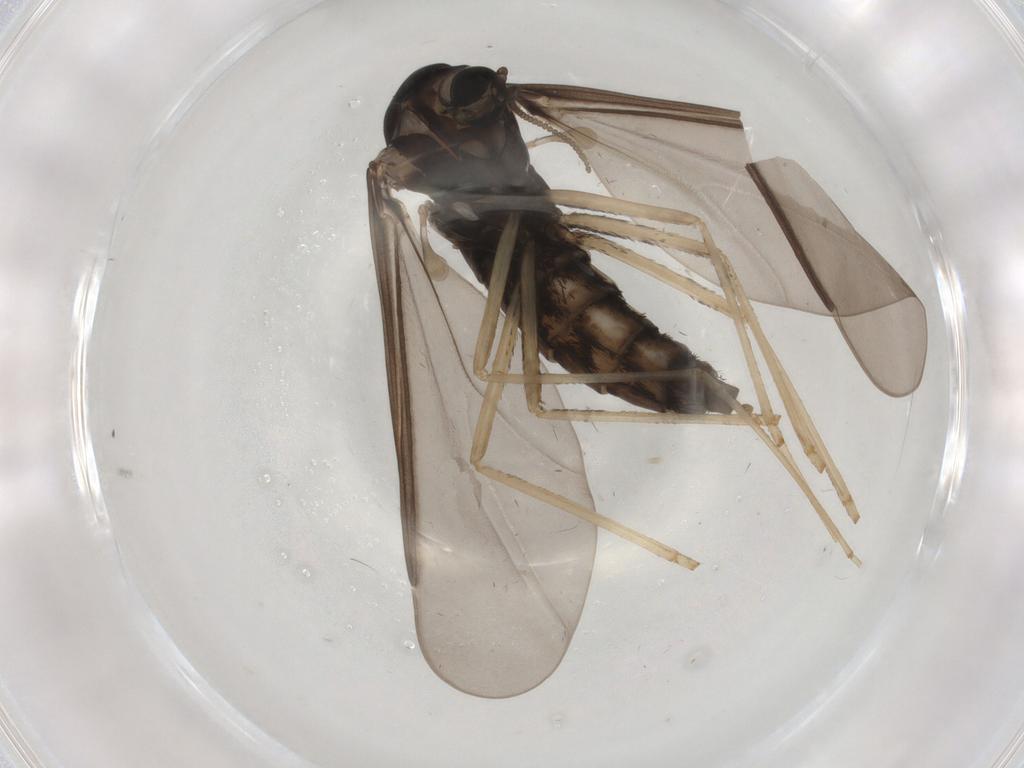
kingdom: Animalia
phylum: Arthropoda
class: Insecta
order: Diptera
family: Cecidomyiidae
